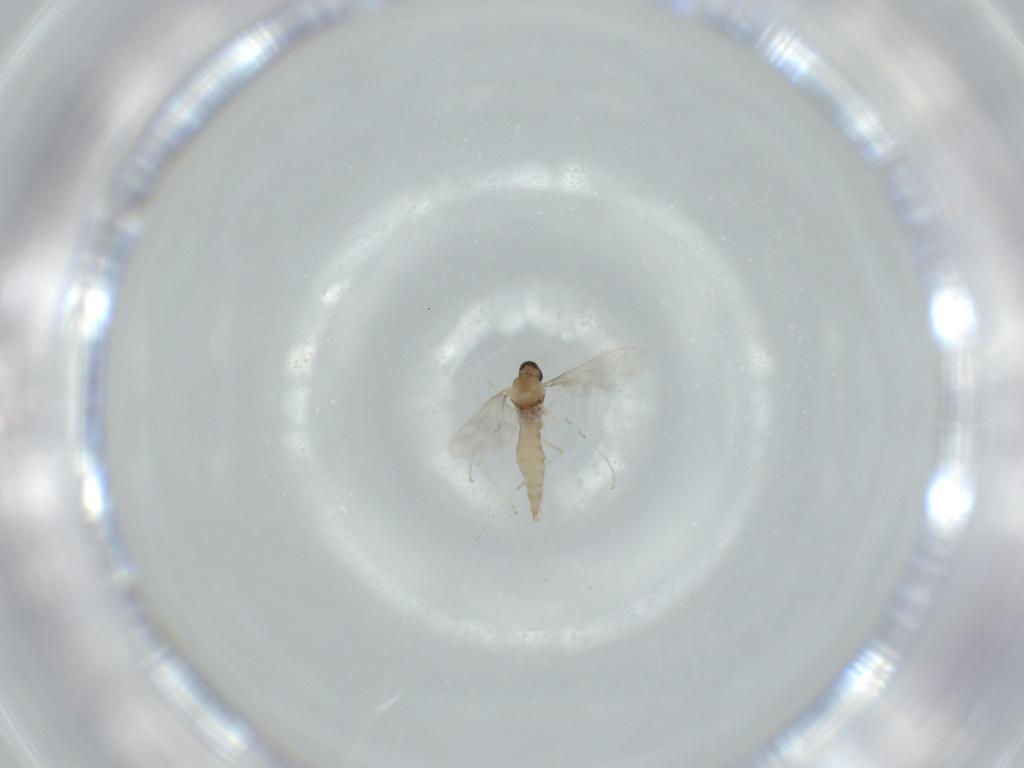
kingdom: Animalia
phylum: Arthropoda
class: Insecta
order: Diptera
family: Cecidomyiidae
